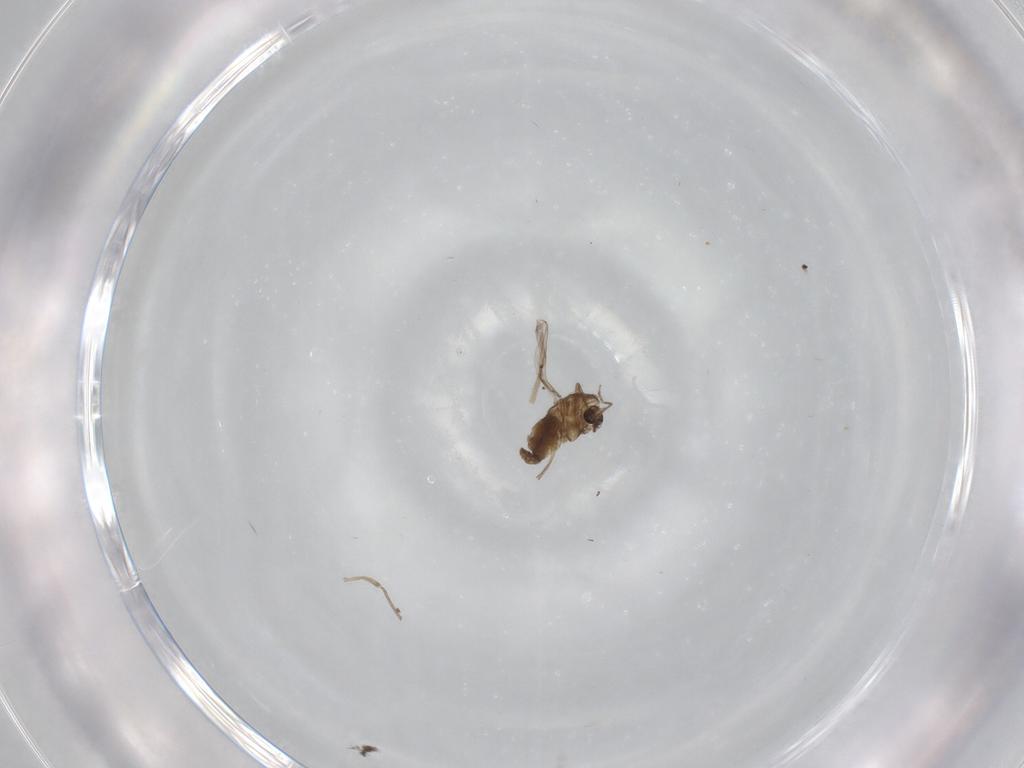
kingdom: Animalia
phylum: Arthropoda
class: Insecta
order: Diptera
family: Chironomidae
